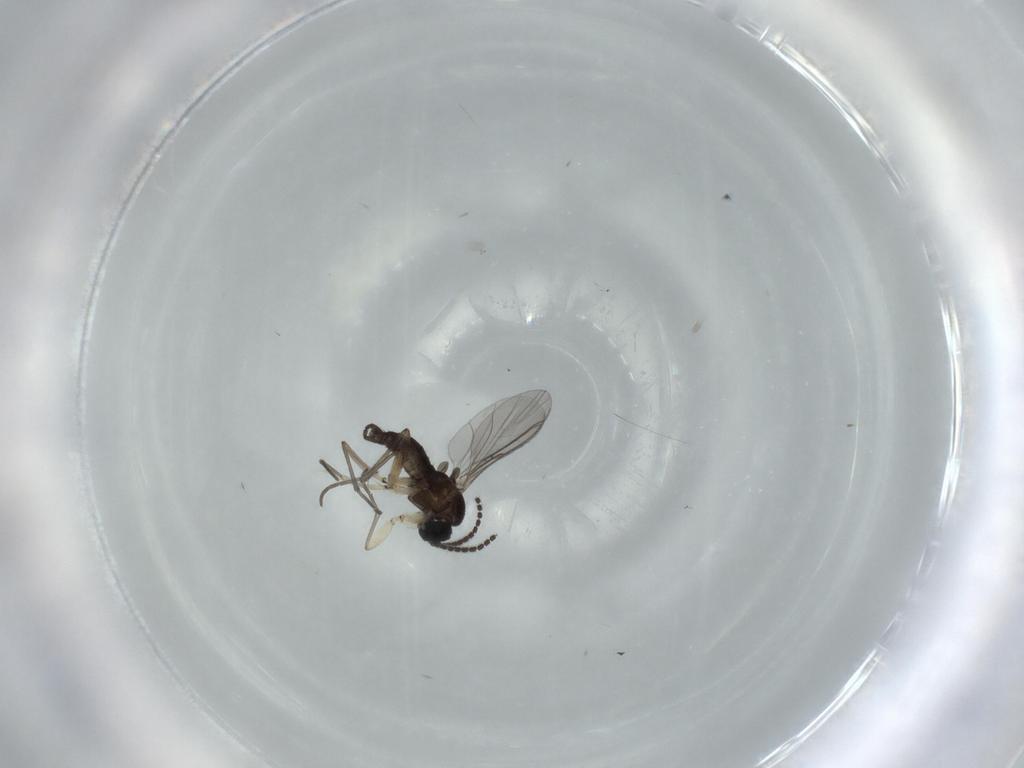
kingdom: Animalia
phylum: Arthropoda
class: Insecta
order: Diptera
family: Sciaridae
